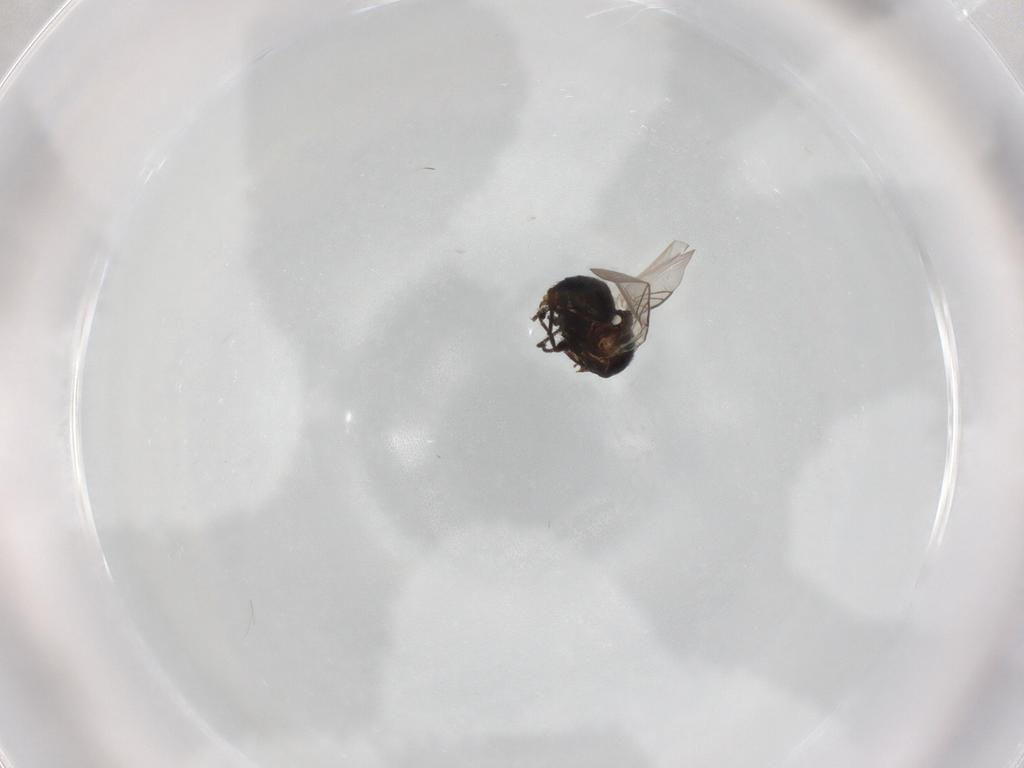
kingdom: Animalia
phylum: Arthropoda
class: Insecta
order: Diptera
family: Agromyzidae
